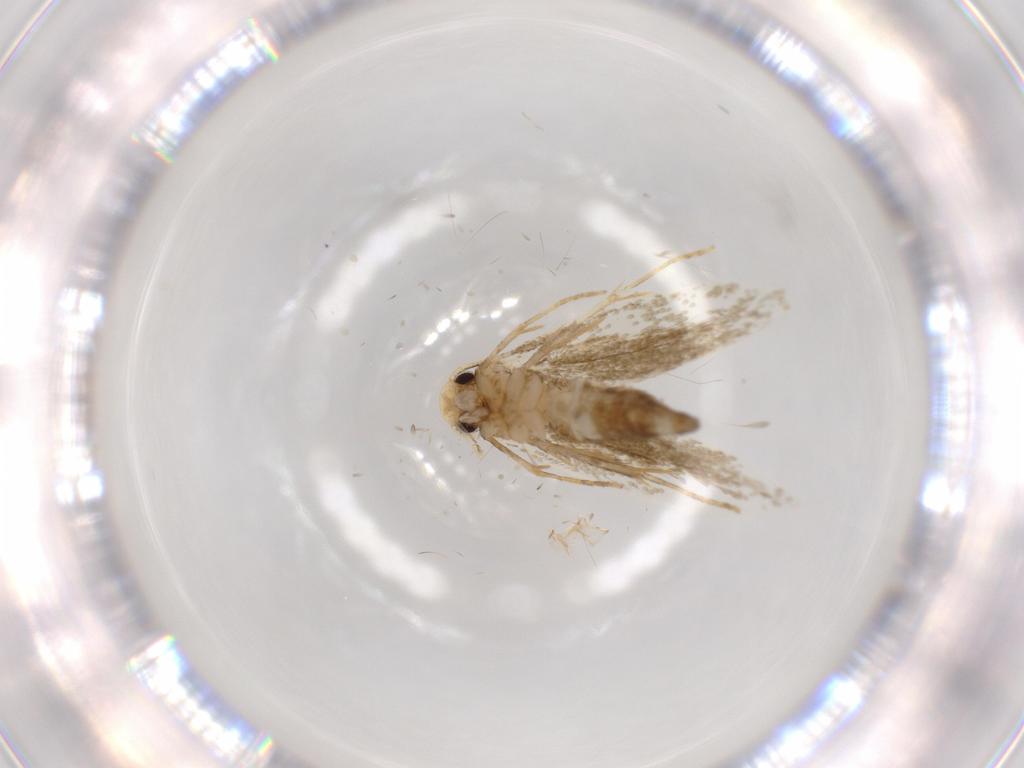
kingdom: Animalia
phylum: Arthropoda
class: Insecta
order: Lepidoptera
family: Tineidae
